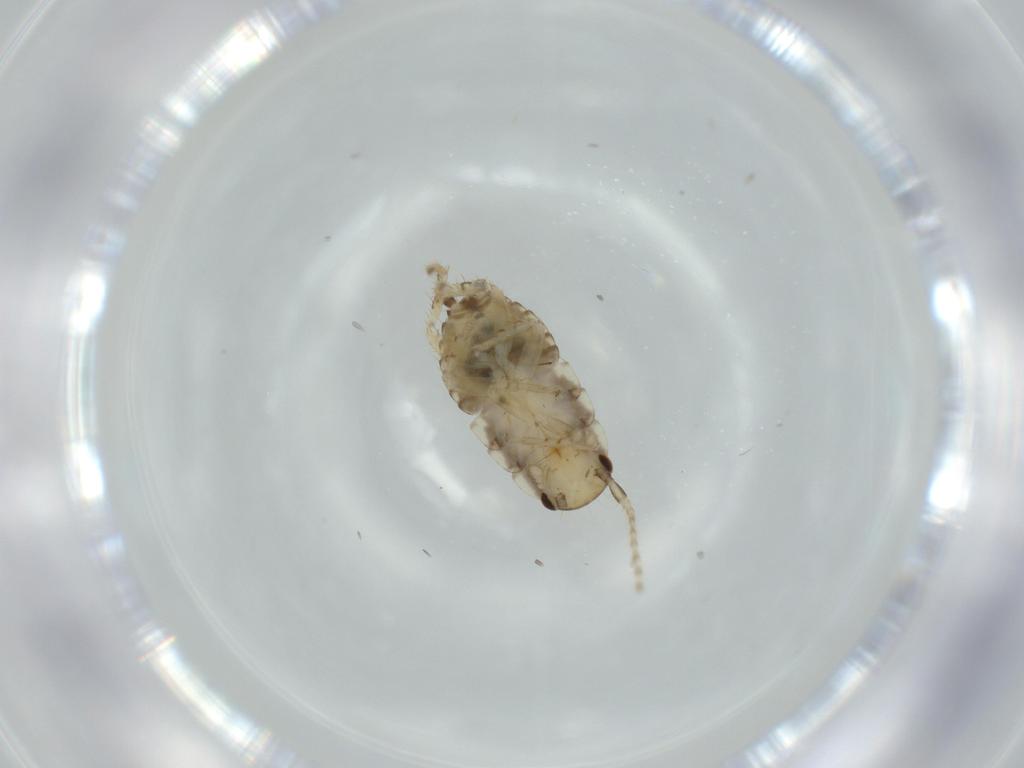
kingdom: Animalia
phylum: Arthropoda
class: Insecta
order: Blattodea
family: Ectobiidae
